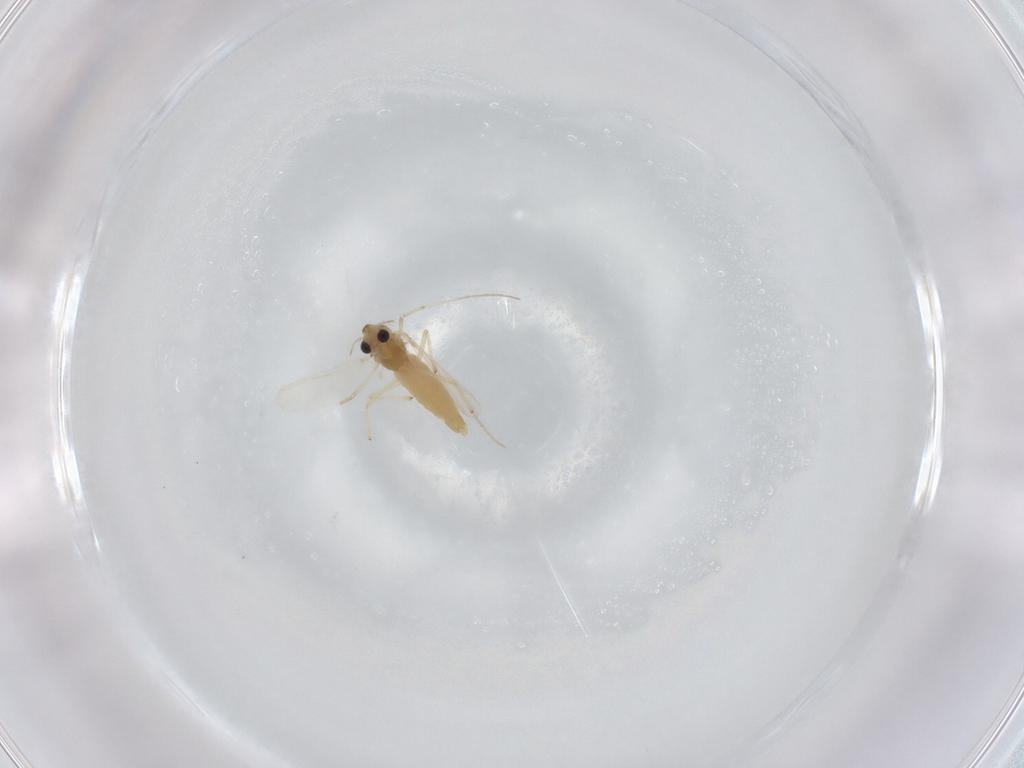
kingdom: Animalia
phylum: Arthropoda
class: Insecta
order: Diptera
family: Chironomidae
